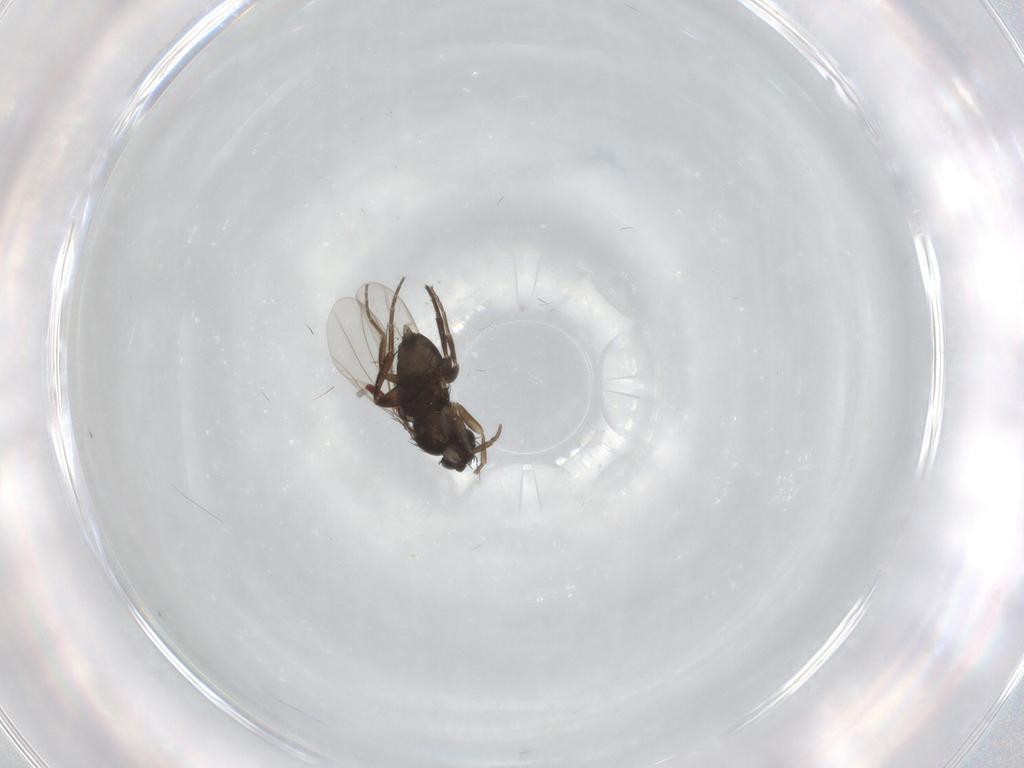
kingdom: Animalia
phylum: Arthropoda
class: Insecta
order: Diptera
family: Phoridae
